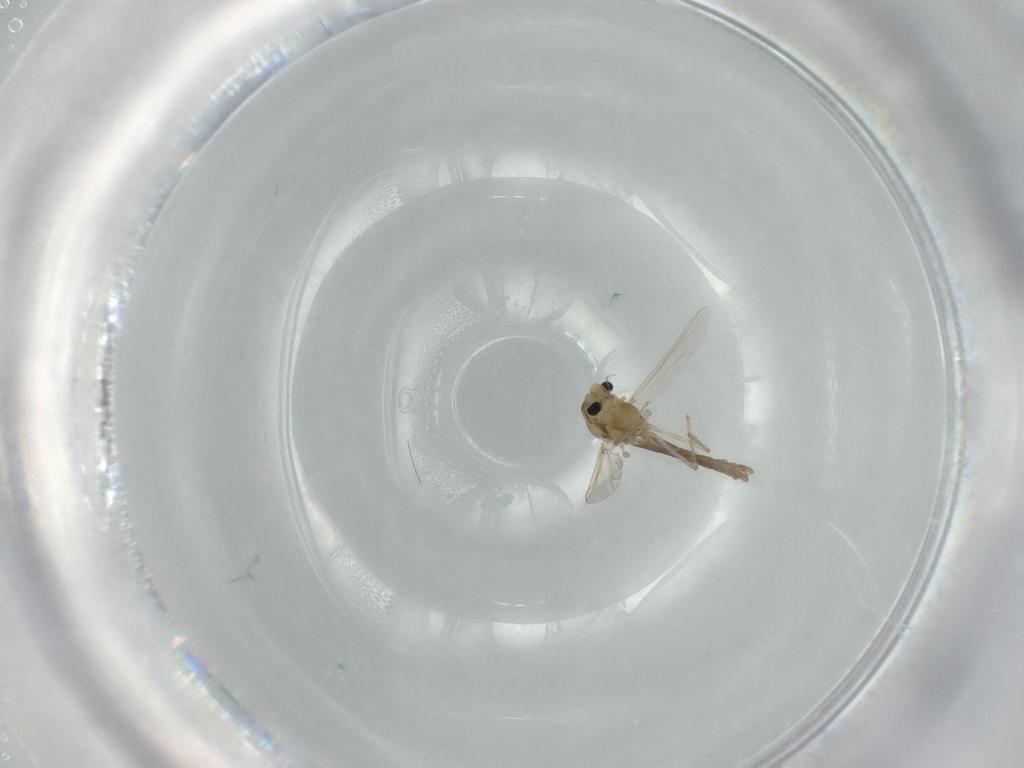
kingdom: Animalia
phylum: Arthropoda
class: Insecta
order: Diptera
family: Chironomidae
